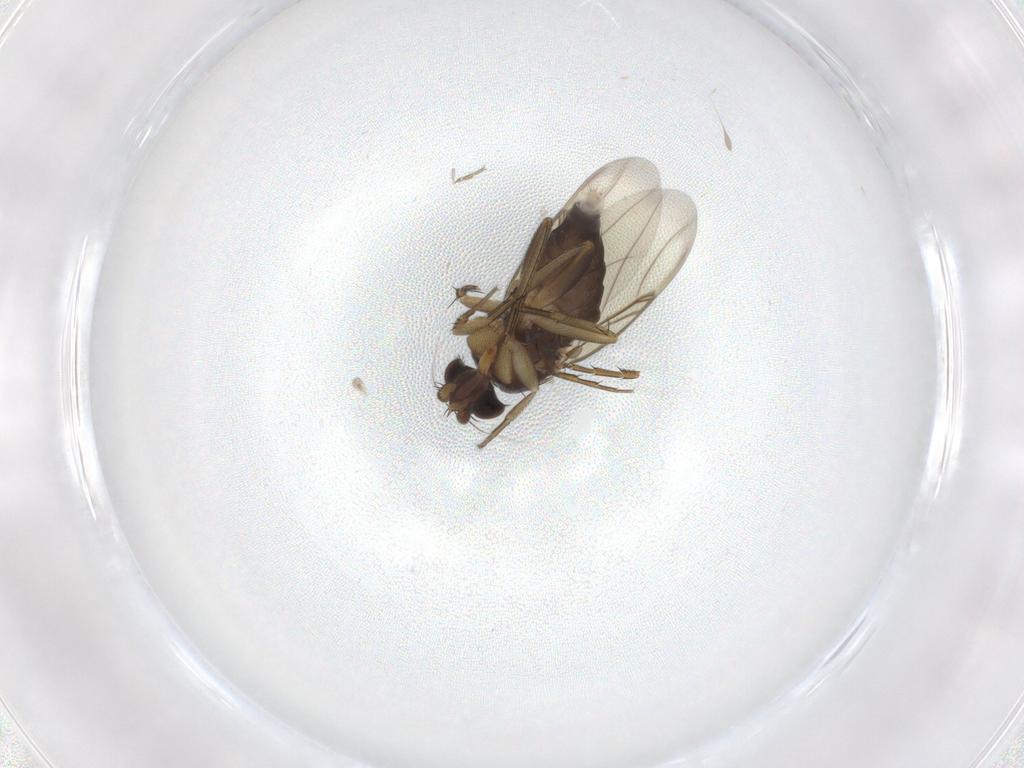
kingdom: Animalia
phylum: Arthropoda
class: Insecta
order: Diptera
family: Phoridae
